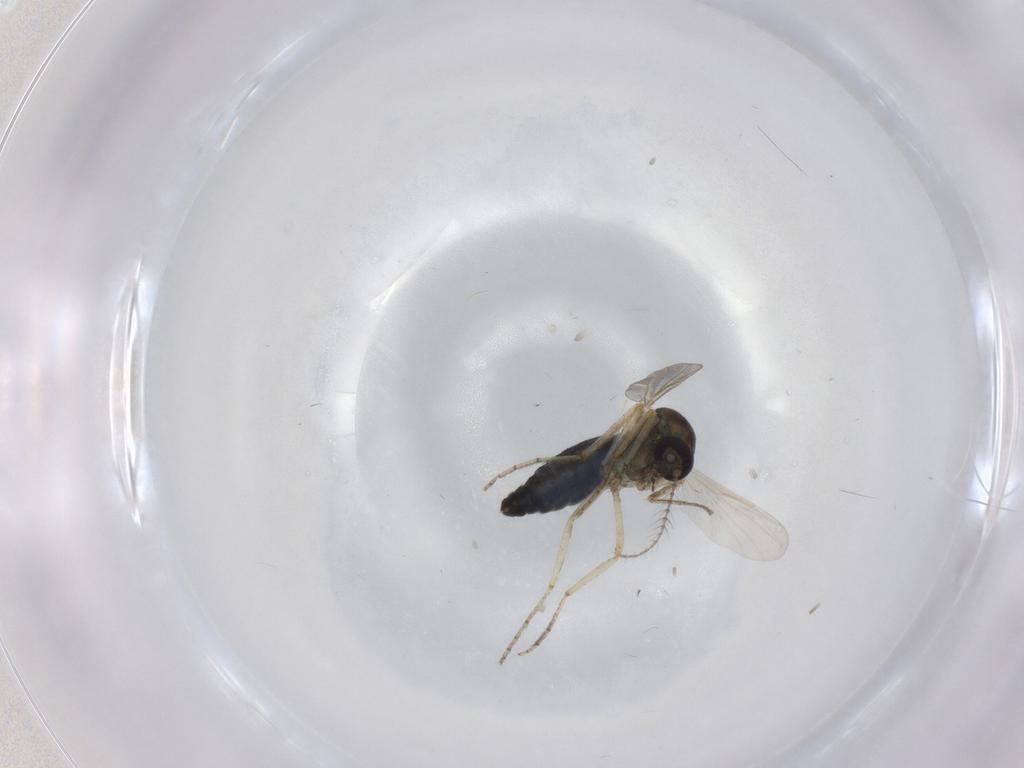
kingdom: Animalia
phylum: Arthropoda
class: Insecta
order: Diptera
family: Ceratopogonidae
